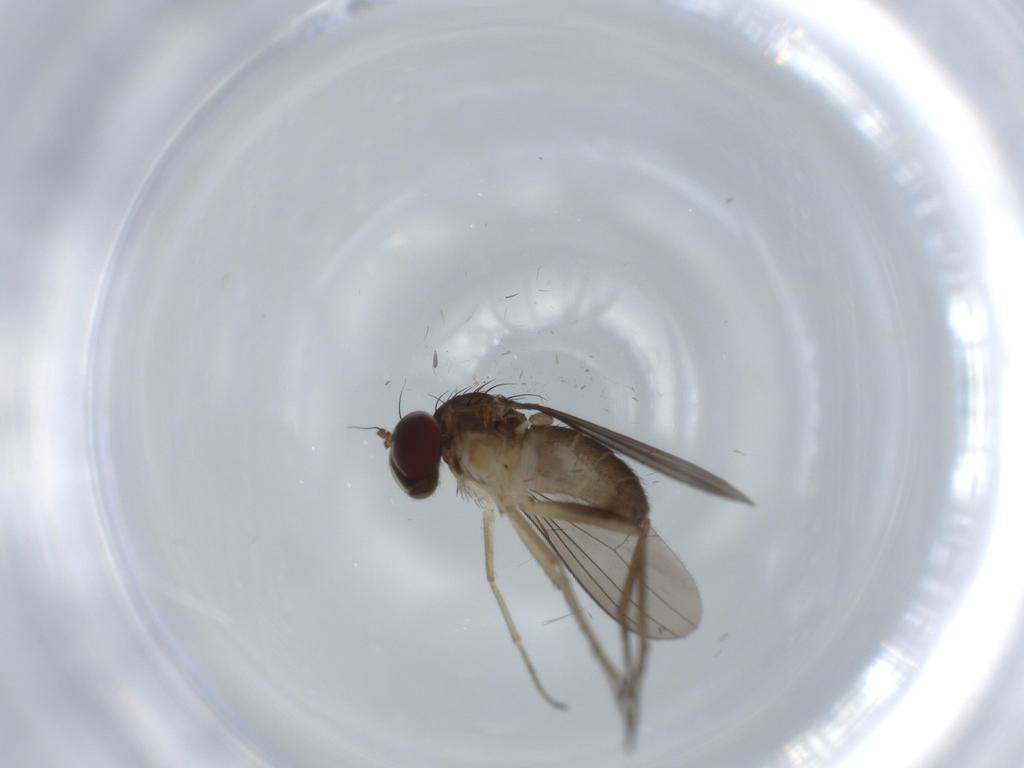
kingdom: Animalia
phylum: Arthropoda
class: Insecta
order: Diptera
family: Dolichopodidae
